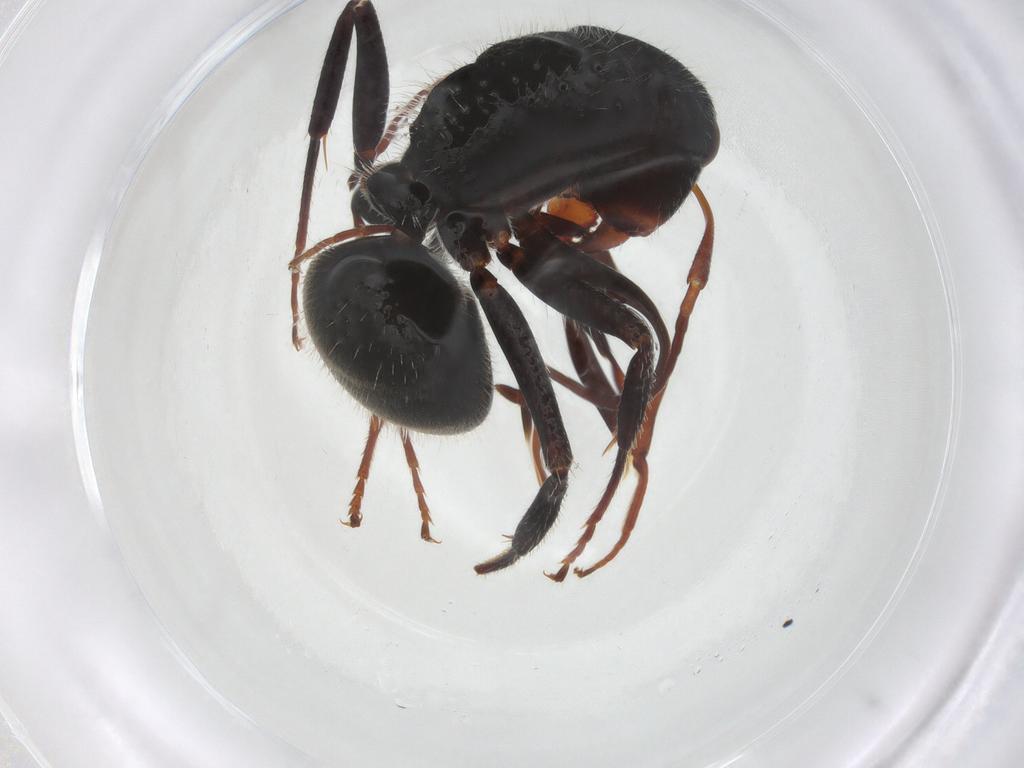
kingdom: Animalia
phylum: Arthropoda
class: Insecta
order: Hymenoptera
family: Formicidae
